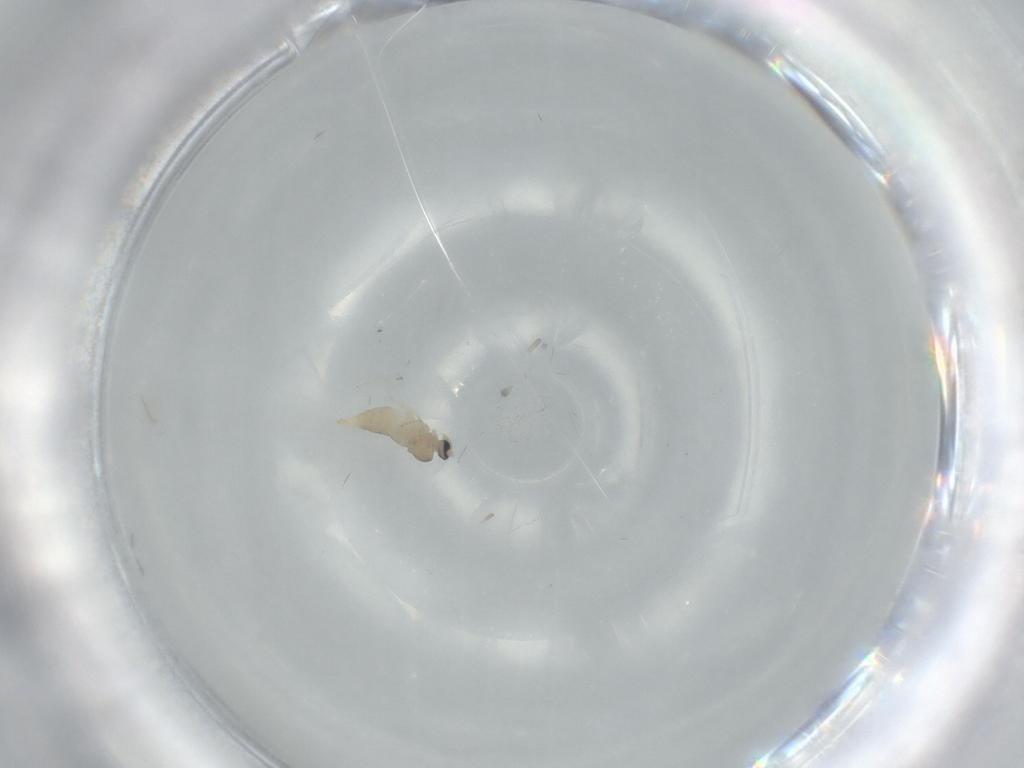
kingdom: Animalia
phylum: Arthropoda
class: Insecta
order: Diptera
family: Cecidomyiidae
